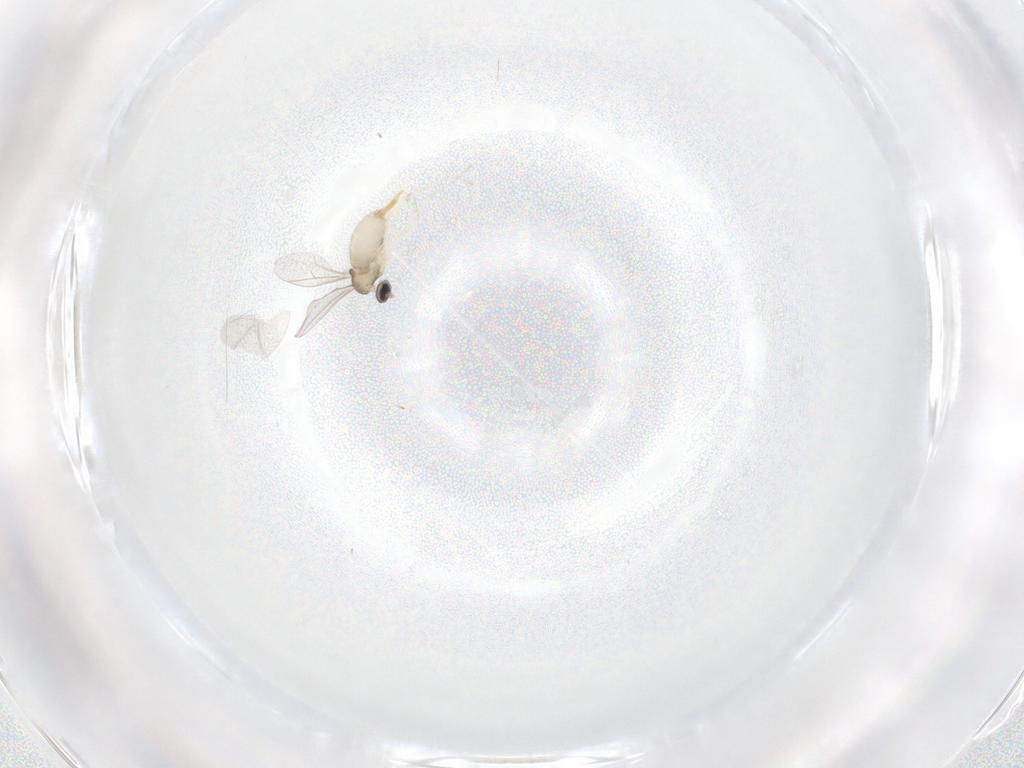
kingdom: Animalia
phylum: Arthropoda
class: Insecta
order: Diptera
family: Cecidomyiidae
